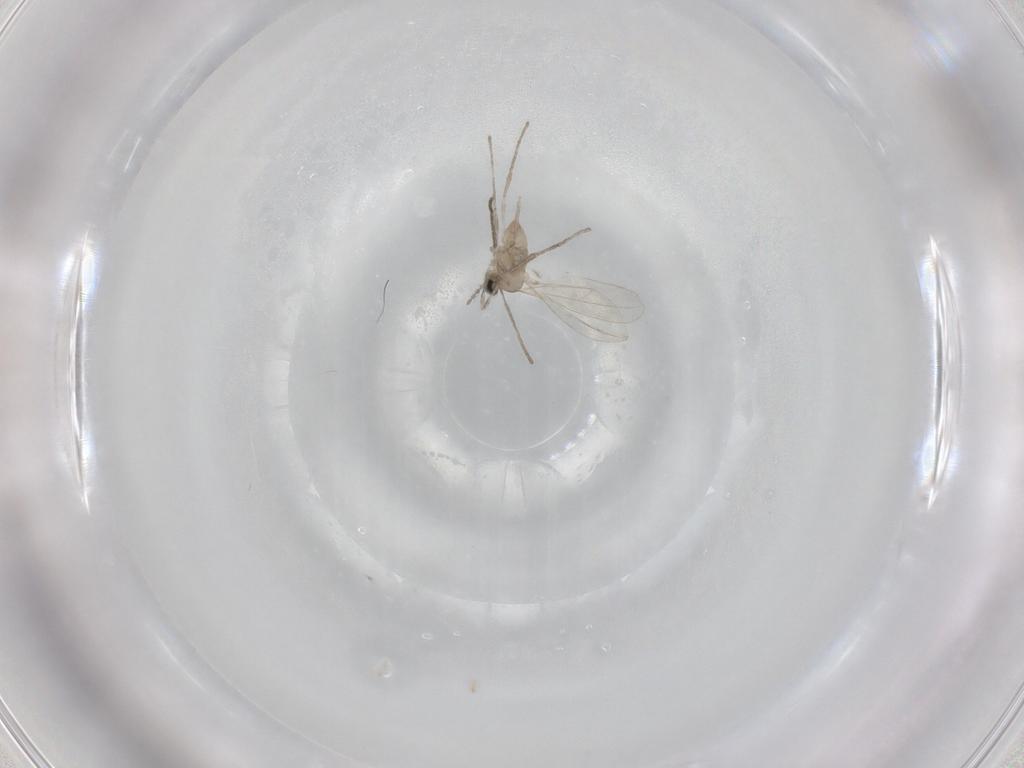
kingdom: Animalia
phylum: Arthropoda
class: Insecta
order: Diptera
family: Cecidomyiidae
